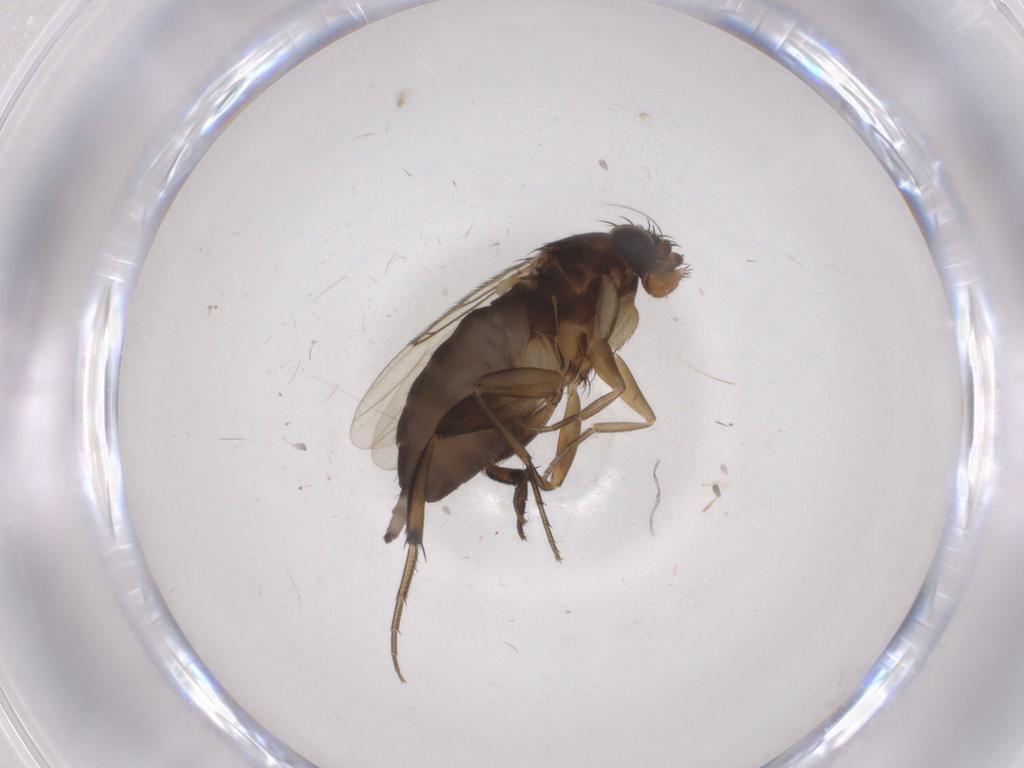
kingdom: Animalia
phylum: Arthropoda
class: Insecta
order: Diptera
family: Phoridae
